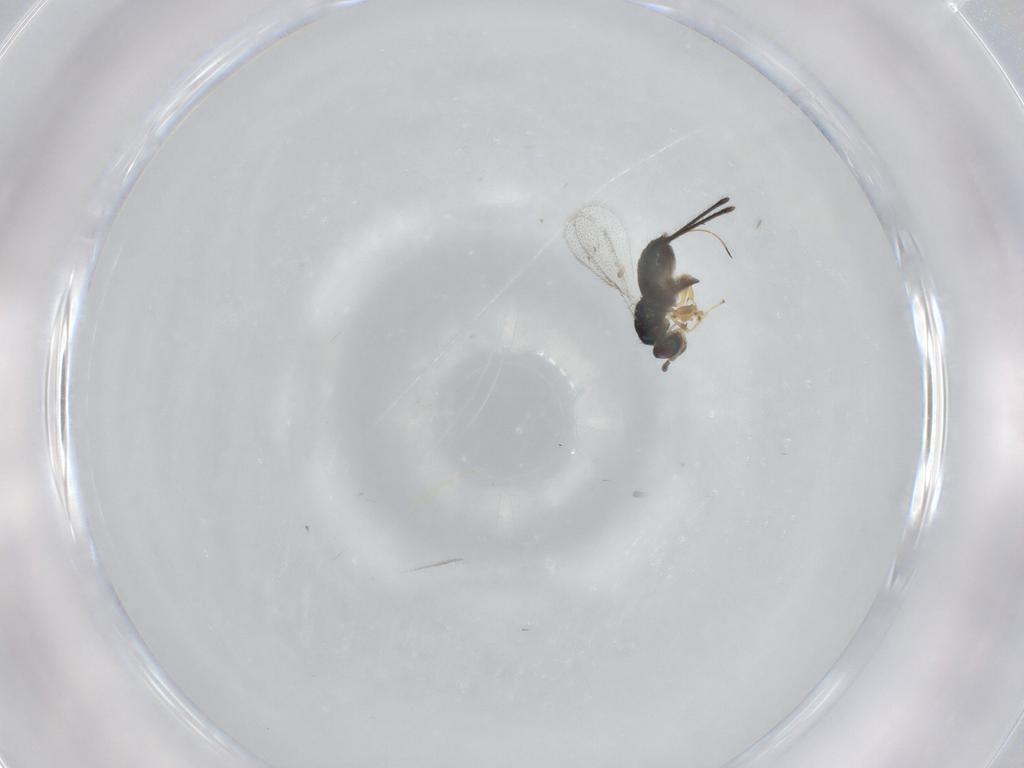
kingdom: Animalia
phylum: Arthropoda
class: Insecta
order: Hymenoptera
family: Torymidae
